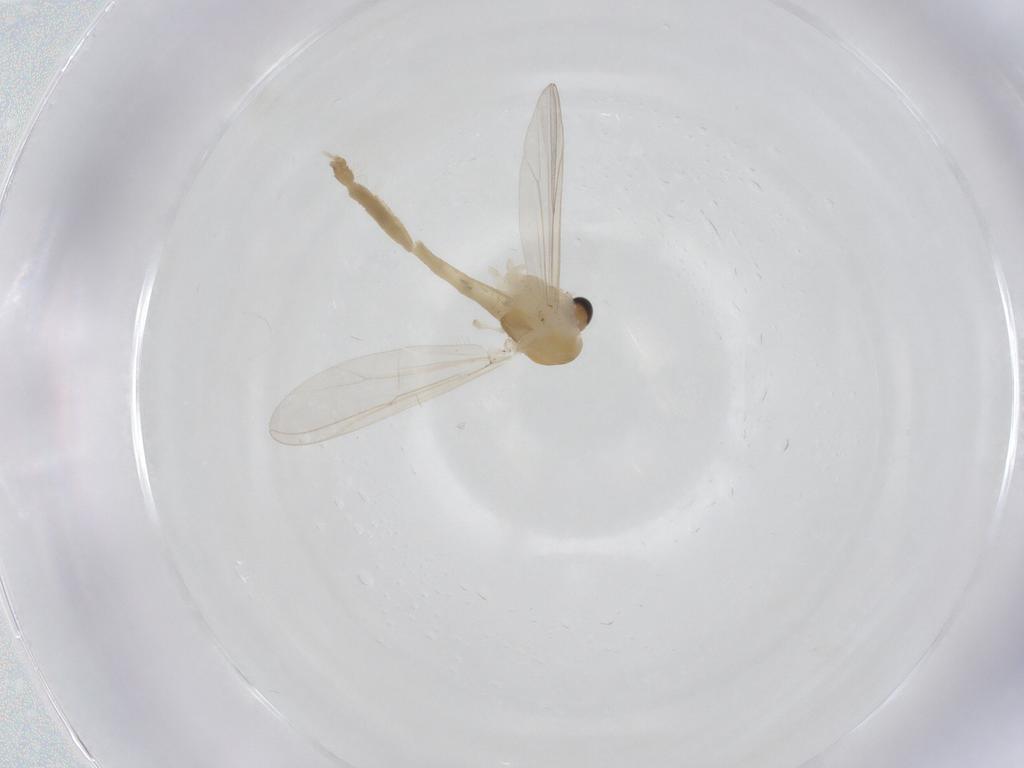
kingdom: Animalia
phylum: Arthropoda
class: Insecta
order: Diptera
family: Chironomidae
